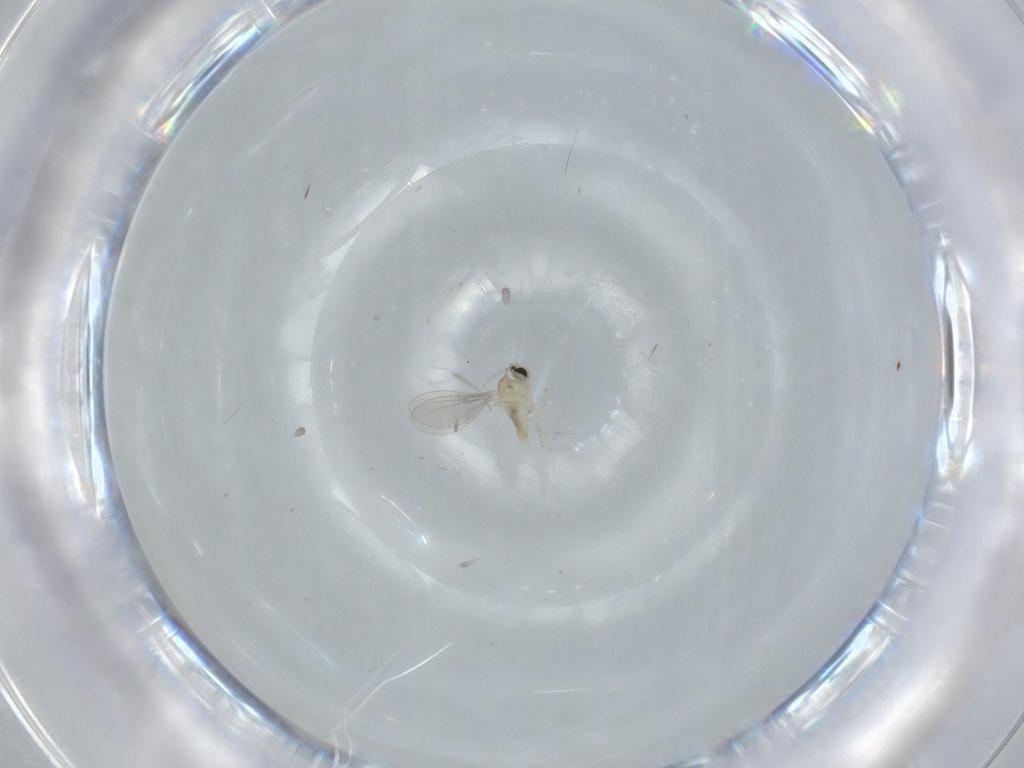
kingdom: Animalia
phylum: Arthropoda
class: Insecta
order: Diptera
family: Cecidomyiidae
